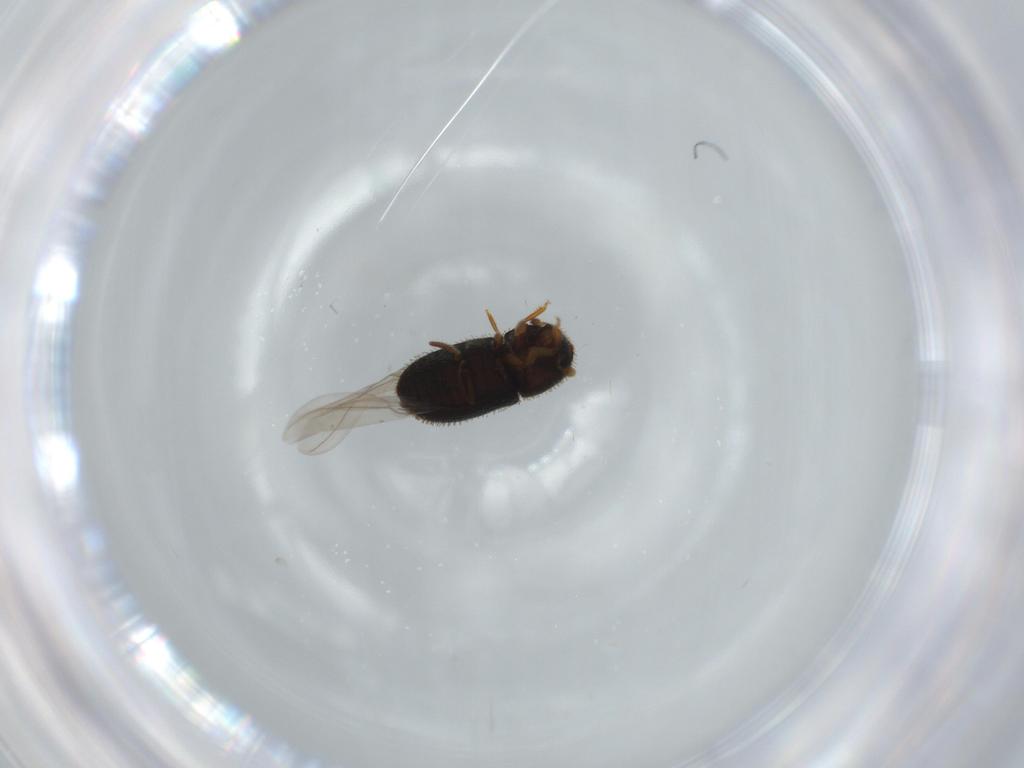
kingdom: Animalia
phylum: Arthropoda
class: Insecta
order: Coleoptera
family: Curculionidae
